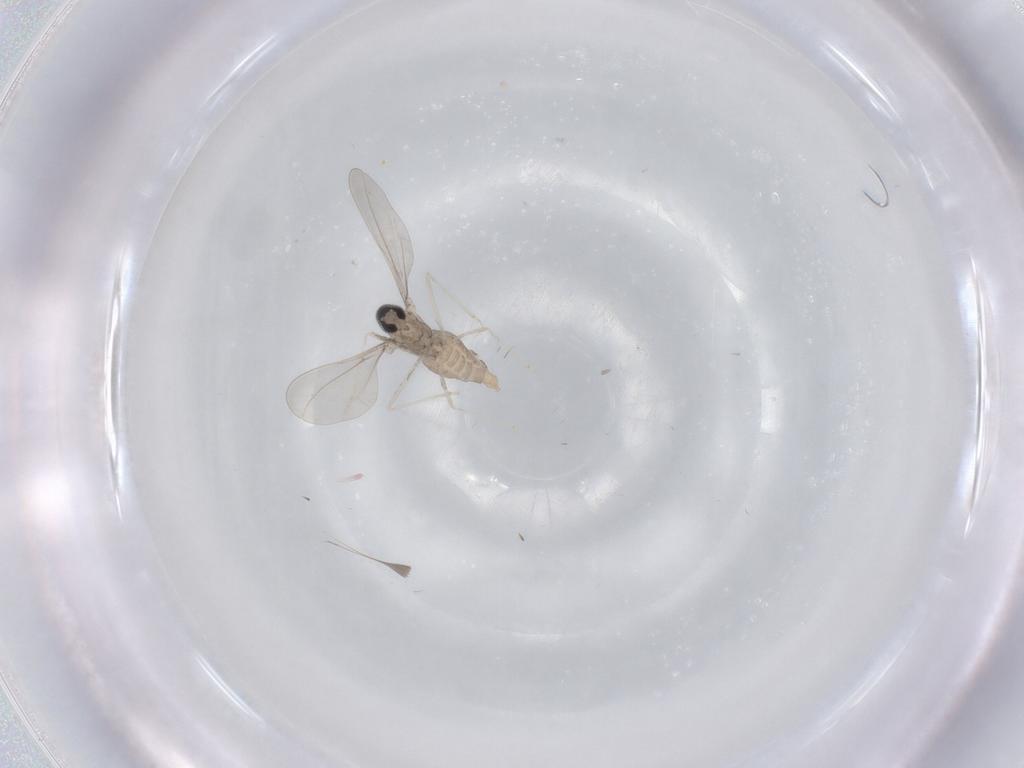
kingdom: Animalia
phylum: Arthropoda
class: Insecta
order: Diptera
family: Cecidomyiidae
